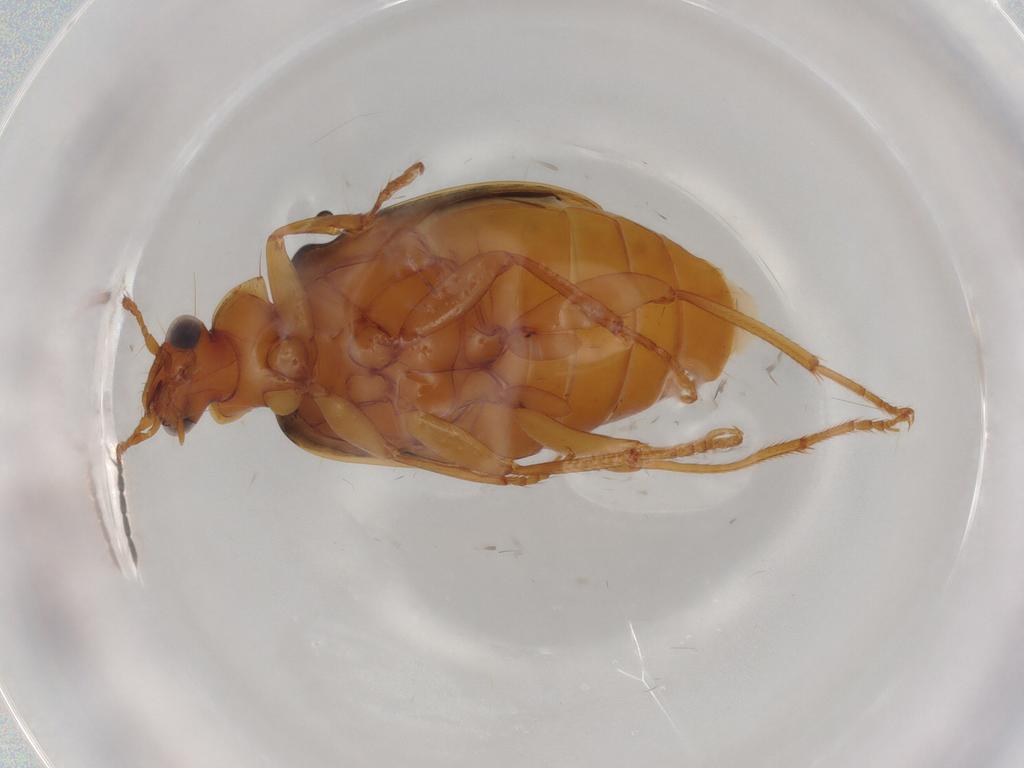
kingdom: Animalia
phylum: Arthropoda
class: Insecta
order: Coleoptera
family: Carabidae
